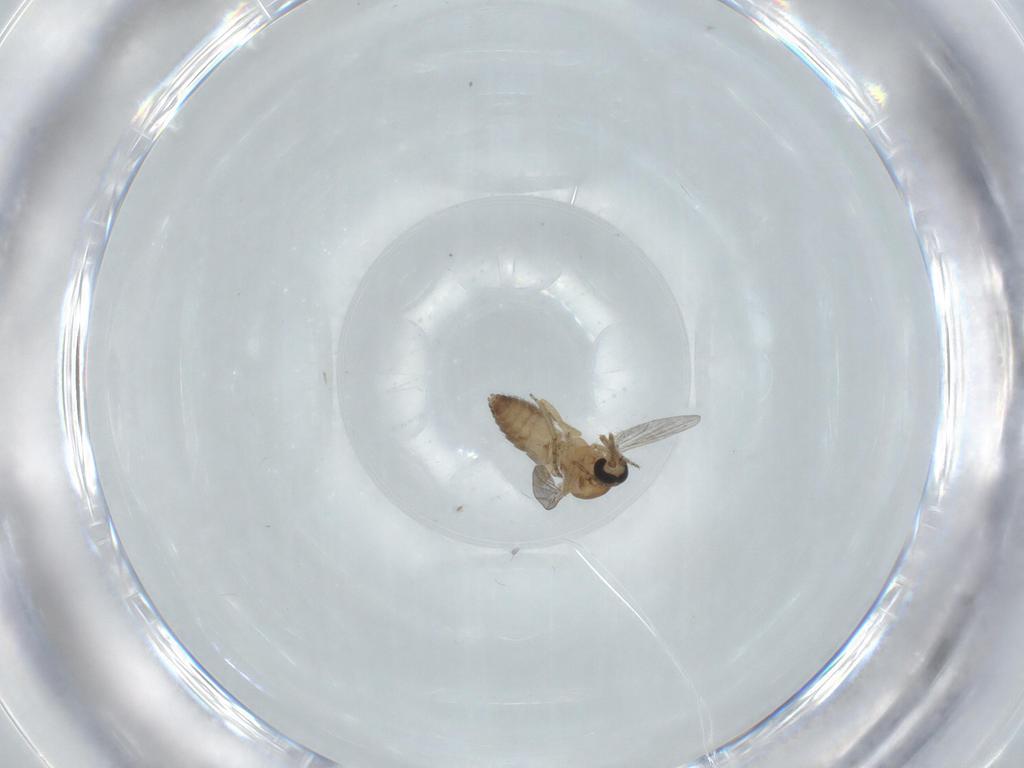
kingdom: Animalia
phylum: Arthropoda
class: Insecta
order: Diptera
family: Ceratopogonidae
